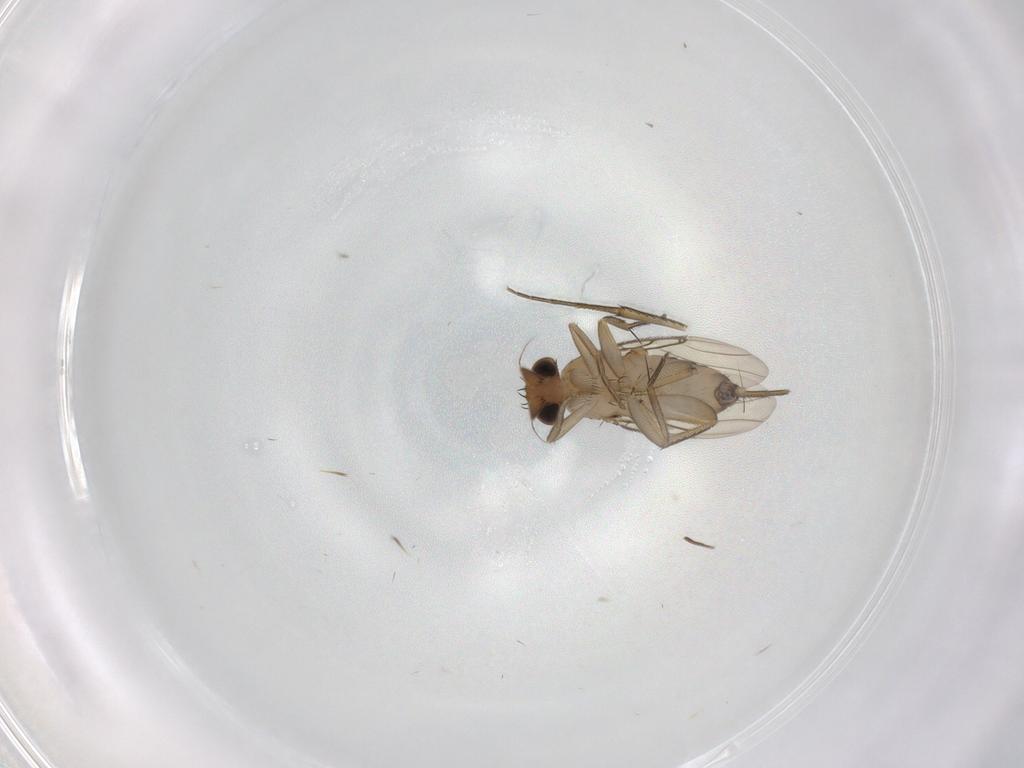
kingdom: Animalia
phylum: Arthropoda
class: Insecta
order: Diptera
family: Phoridae
